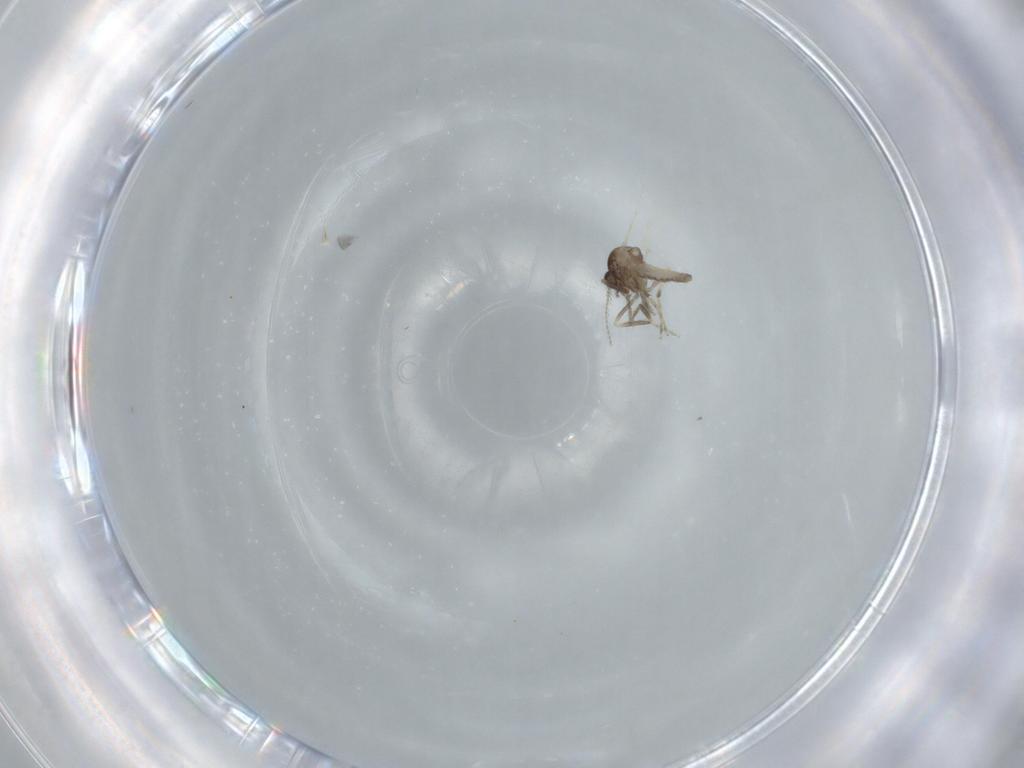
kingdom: Animalia
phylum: Arthropoda
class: Insecta
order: Diptera
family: Ceratopogonidae
